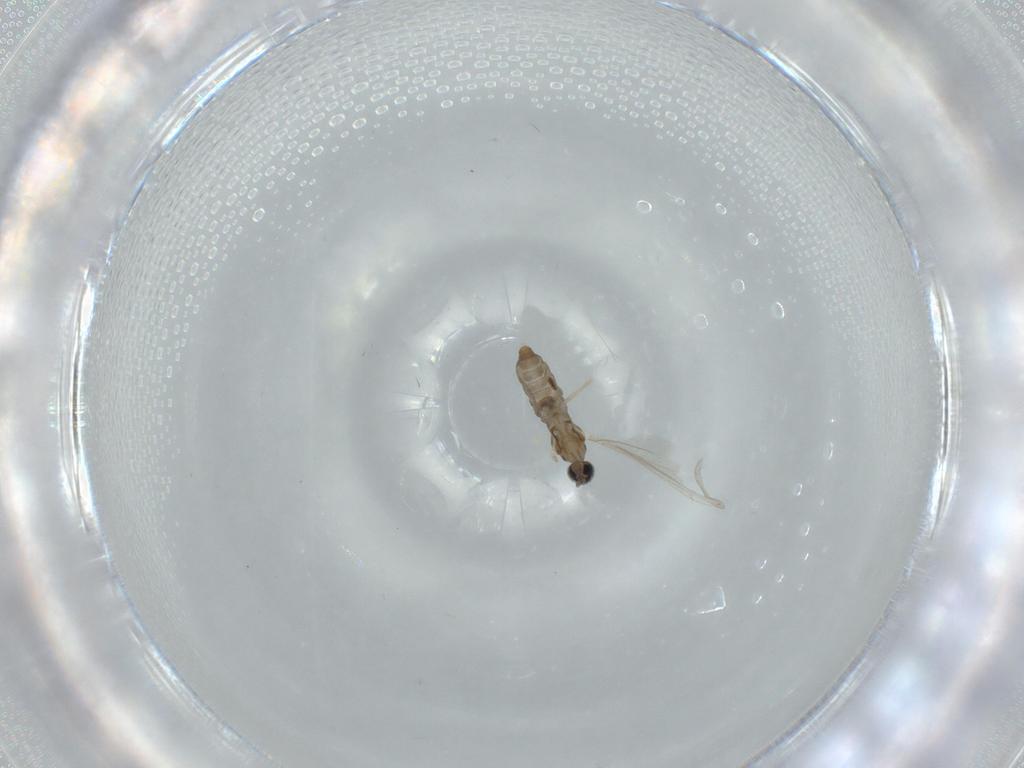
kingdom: Animalia
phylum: Arthropoda
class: Insecta
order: Diptera
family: Cecidomyiidae
